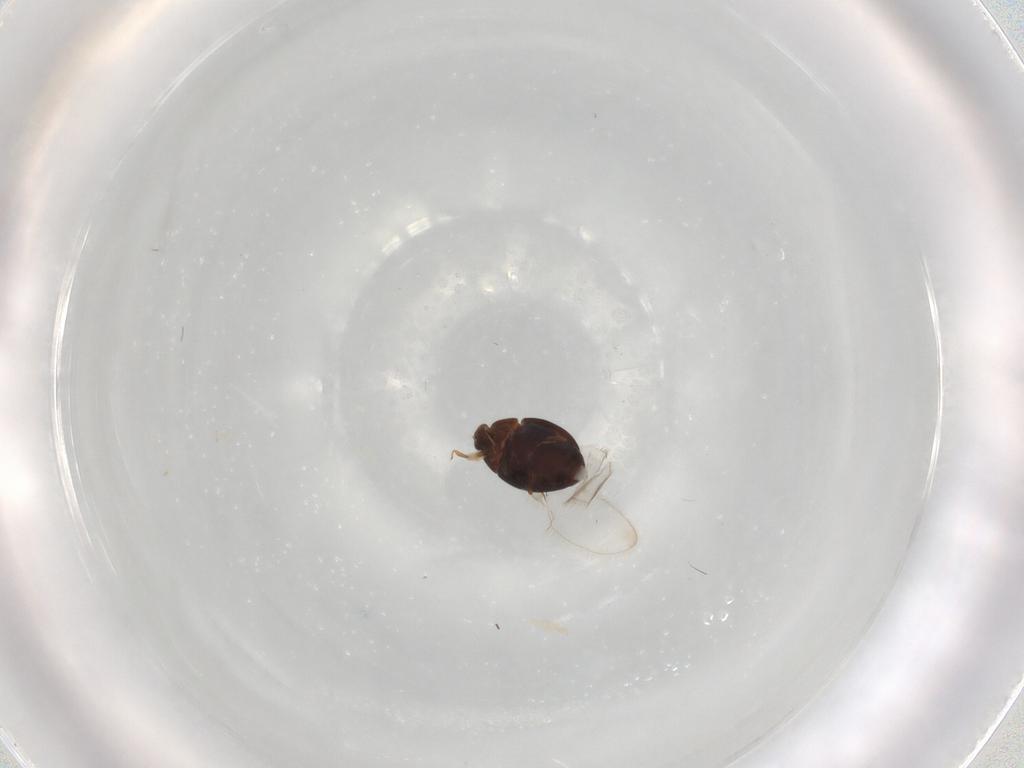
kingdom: Animalia
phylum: Arthropoda
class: Insecta
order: Coleoptera
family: Corylophidae
